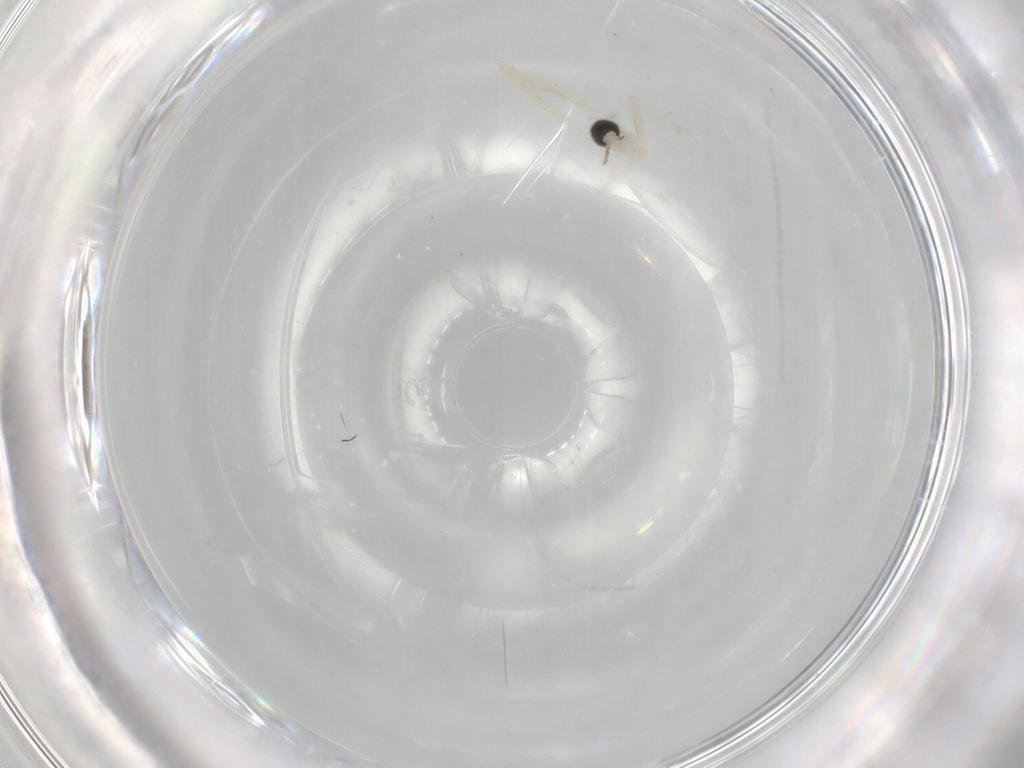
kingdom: Animalia
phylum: Arthropoda
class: Insecta
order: Diptera
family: Cecidomyiidae
